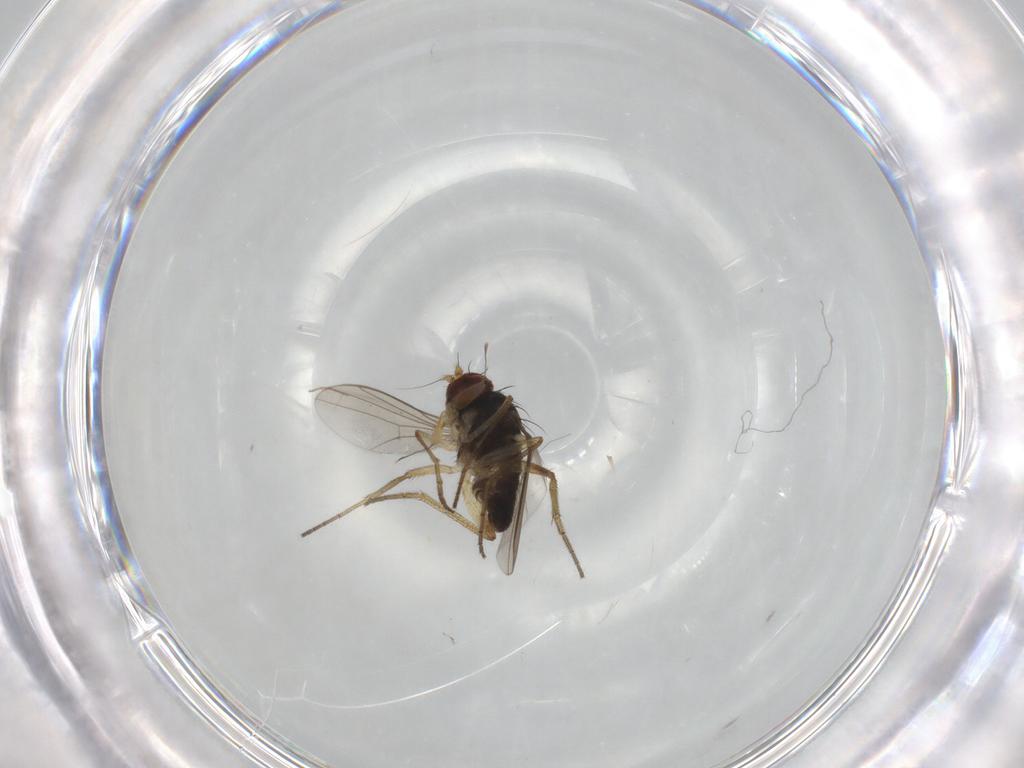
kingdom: Animalia
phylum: Arthropoda
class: Insecta
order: Diptera
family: Dolichopodidae
